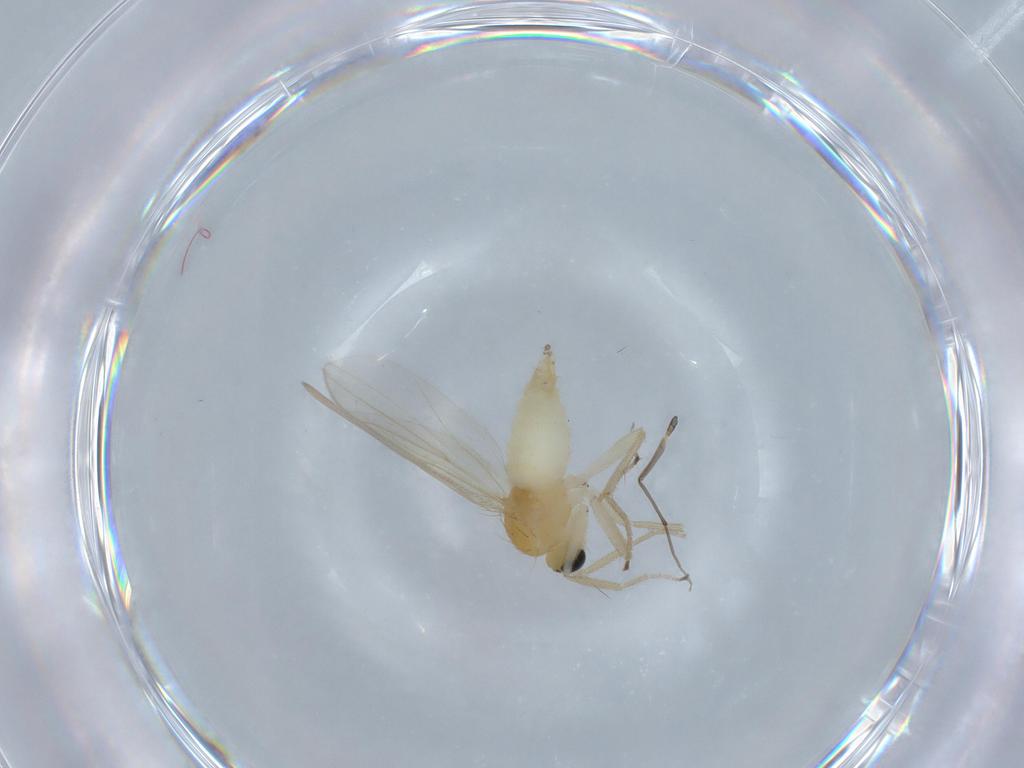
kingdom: Animalia
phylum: Arthropoda
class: Insecta
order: Diptera
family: Hybotidae
